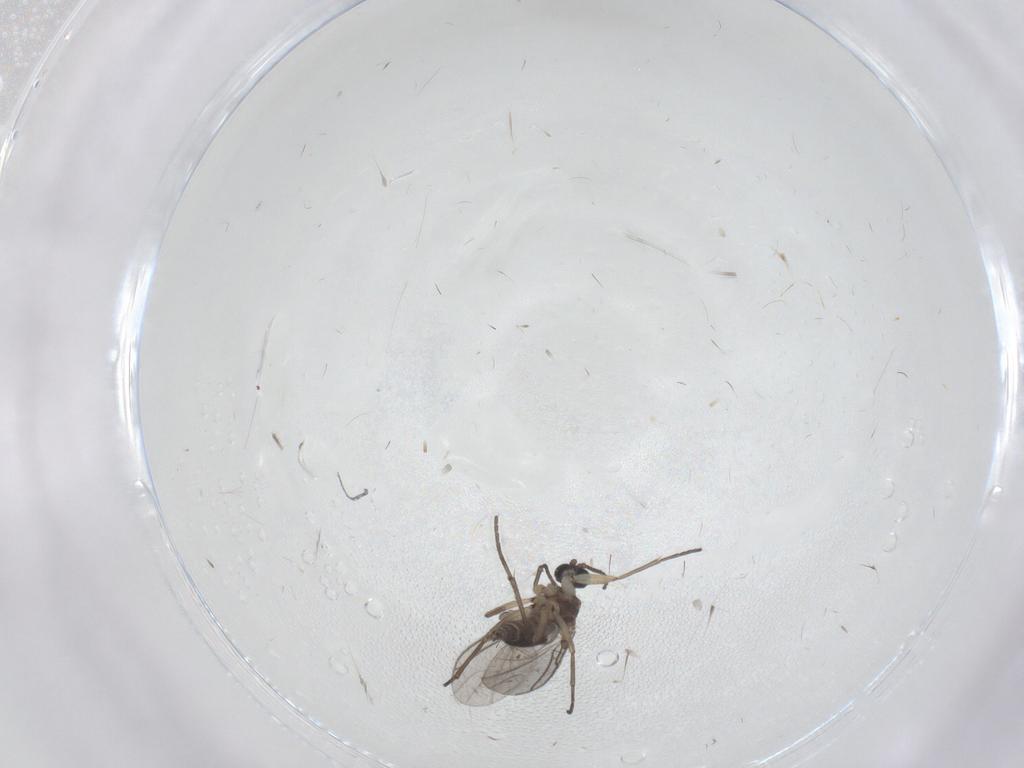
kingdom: Animalia
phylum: Arthropoda
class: Insecta
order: Diptera
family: Sciaridae
